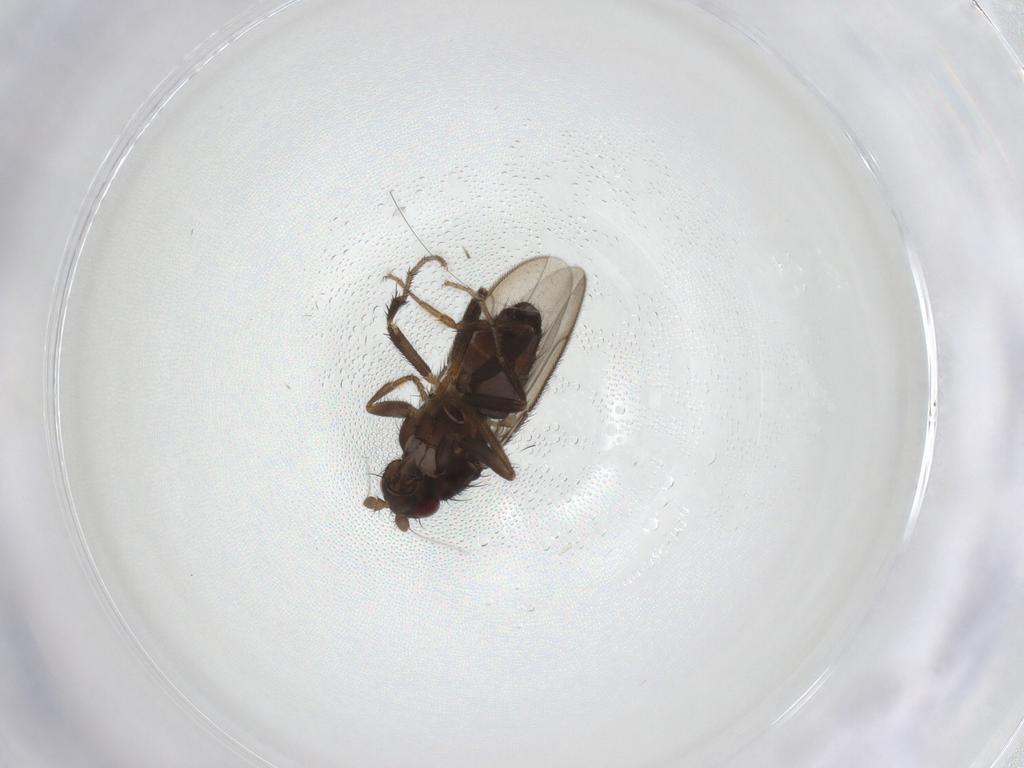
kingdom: Animalia
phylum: Arthropoda
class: Insecta
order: Diptera
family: Sphaeroceridae
